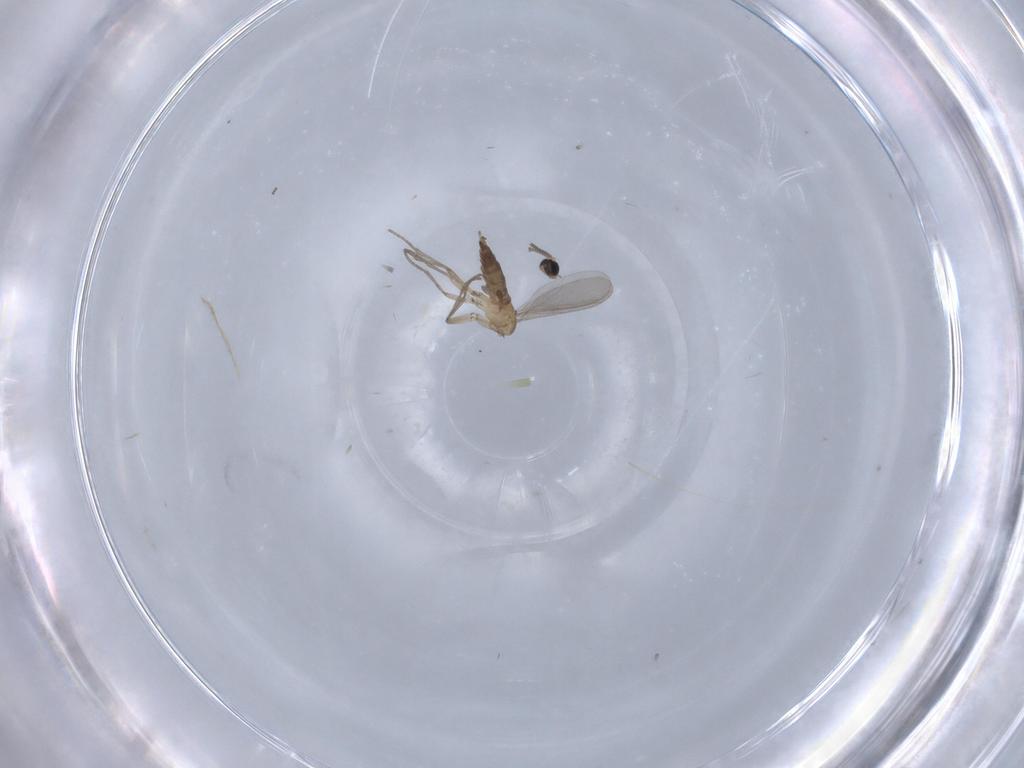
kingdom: Animalia
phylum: Arthropoda
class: Insecta
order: Diptera
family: Sciaridae
